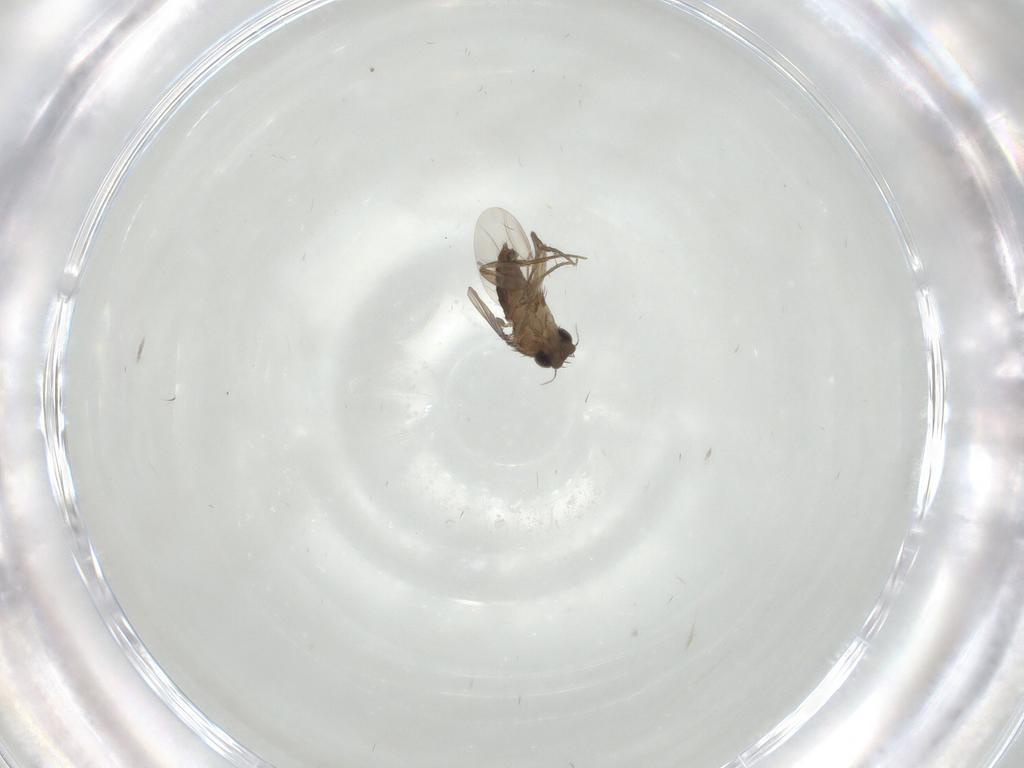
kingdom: Animalia
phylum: Arthropoda
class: Insecta
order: Diptera
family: Phoridae
